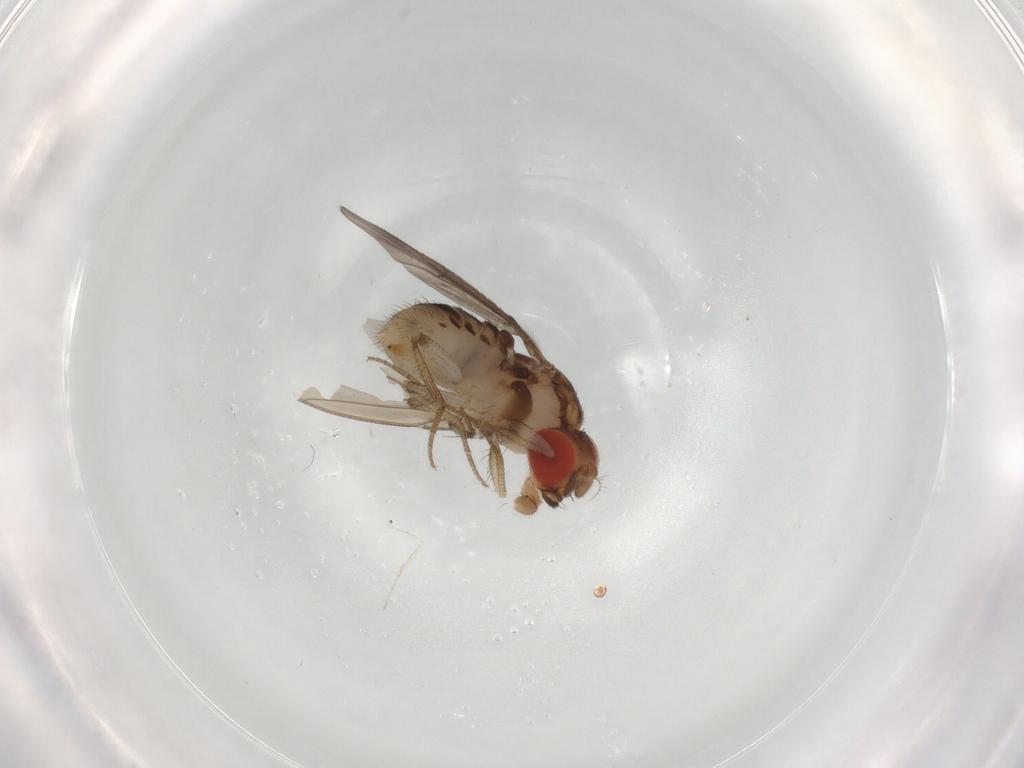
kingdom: Animalia
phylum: Arthropoda
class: Insecta
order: Diptera
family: Drosophilidae
